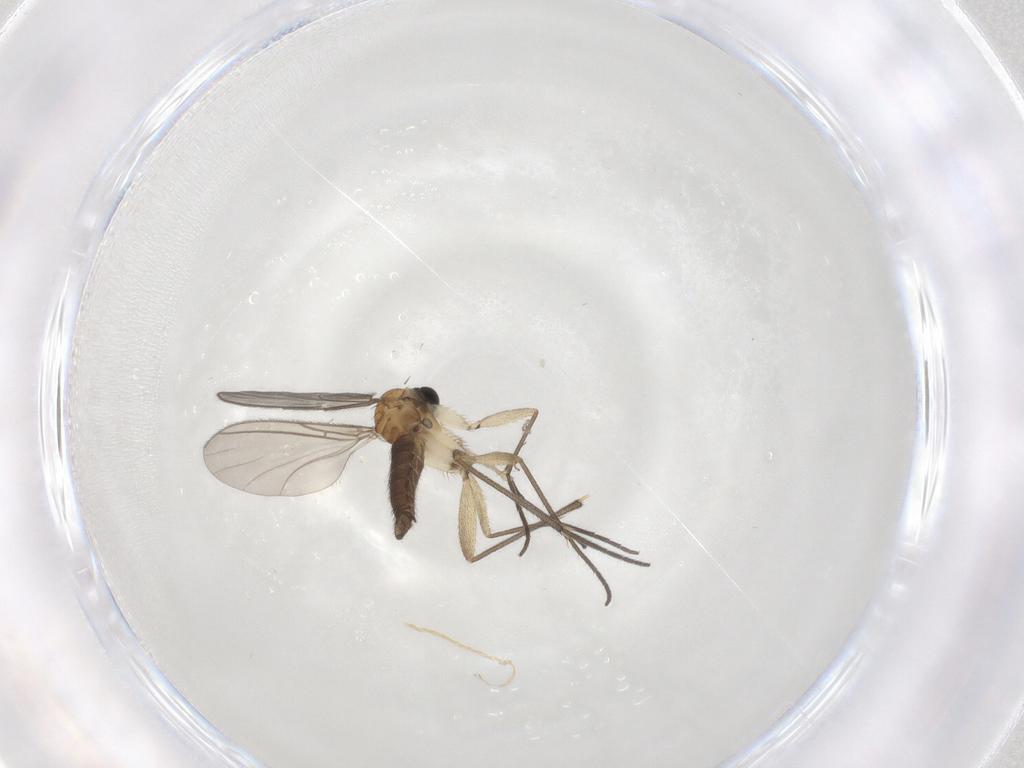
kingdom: Animalia
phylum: Arthropoda
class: Insecta
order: Diptera
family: Sciaridae
